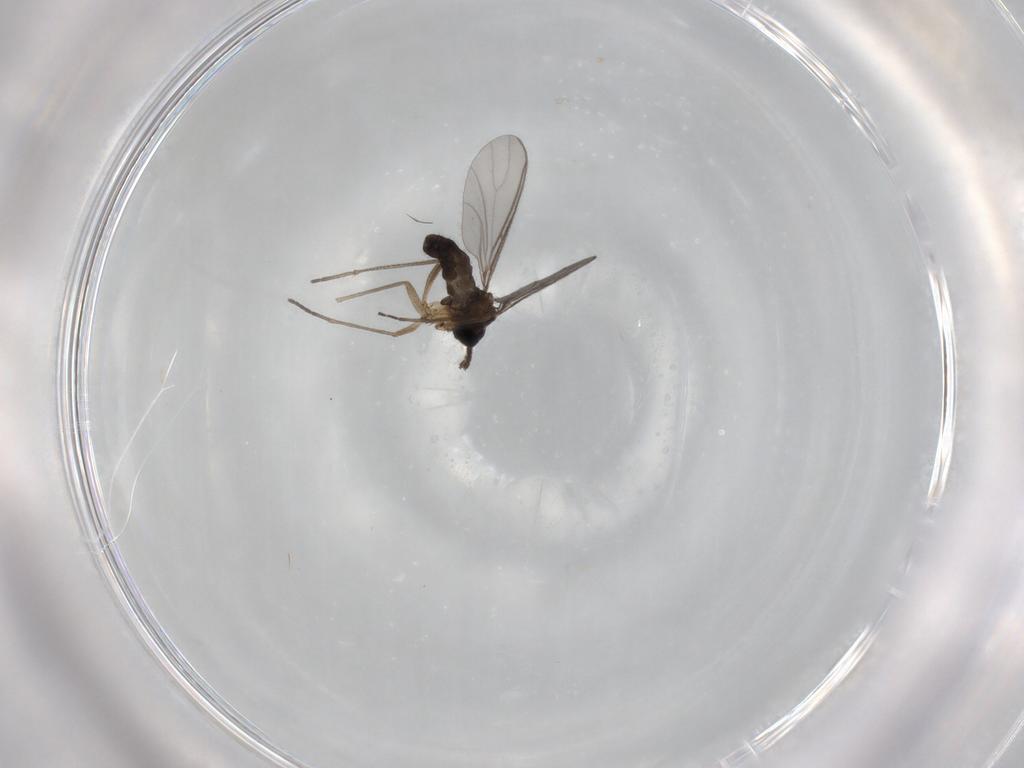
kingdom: Animalia
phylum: Arthropoda
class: Insecta
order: Diptera
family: Sciaridae
